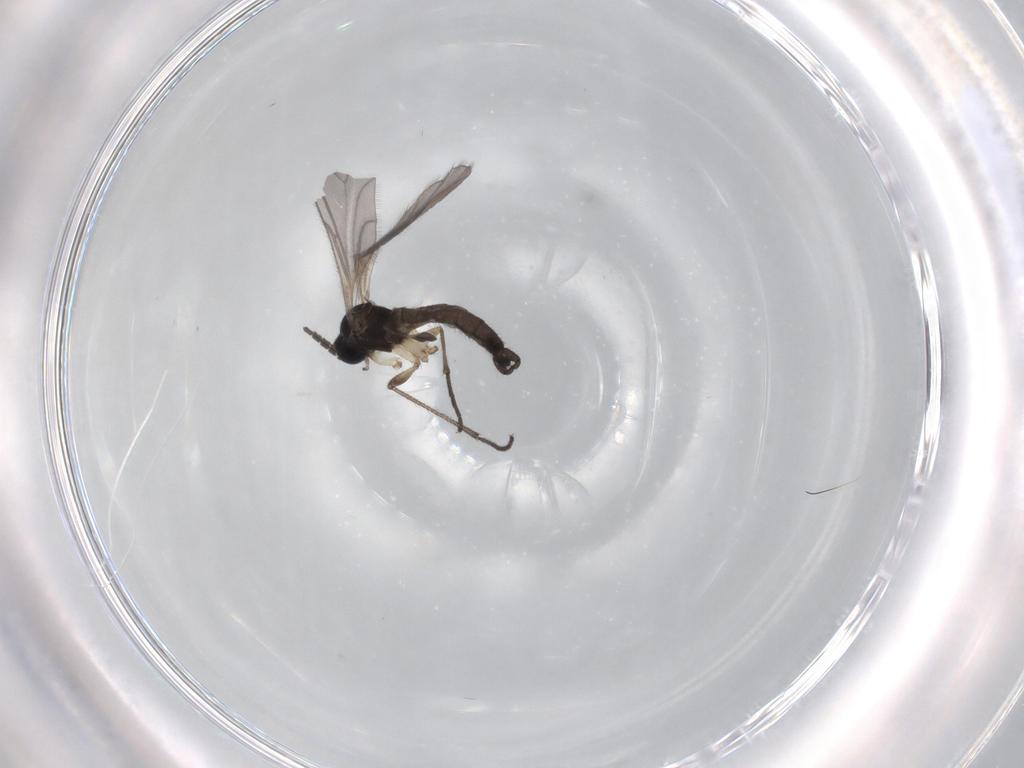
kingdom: Animalia
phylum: Arthropoda
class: Insecta
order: Diptera
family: Sciaridae
